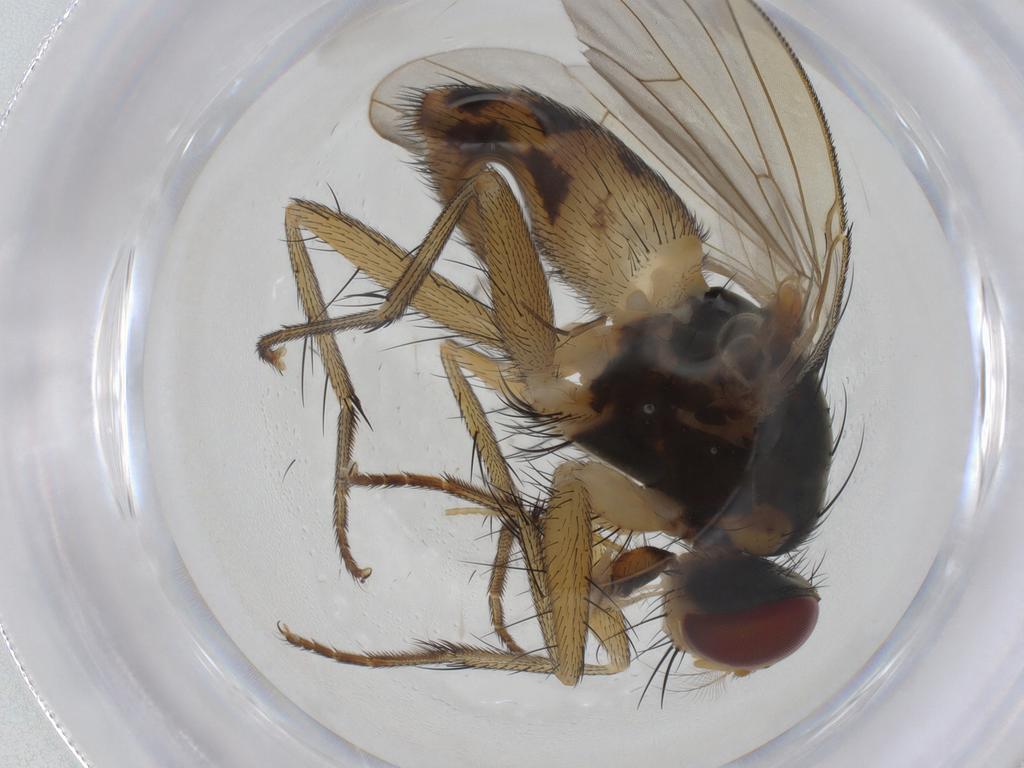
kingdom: Animalia
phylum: Arthropoda
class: Insecta
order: Diptera
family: Muscidae
